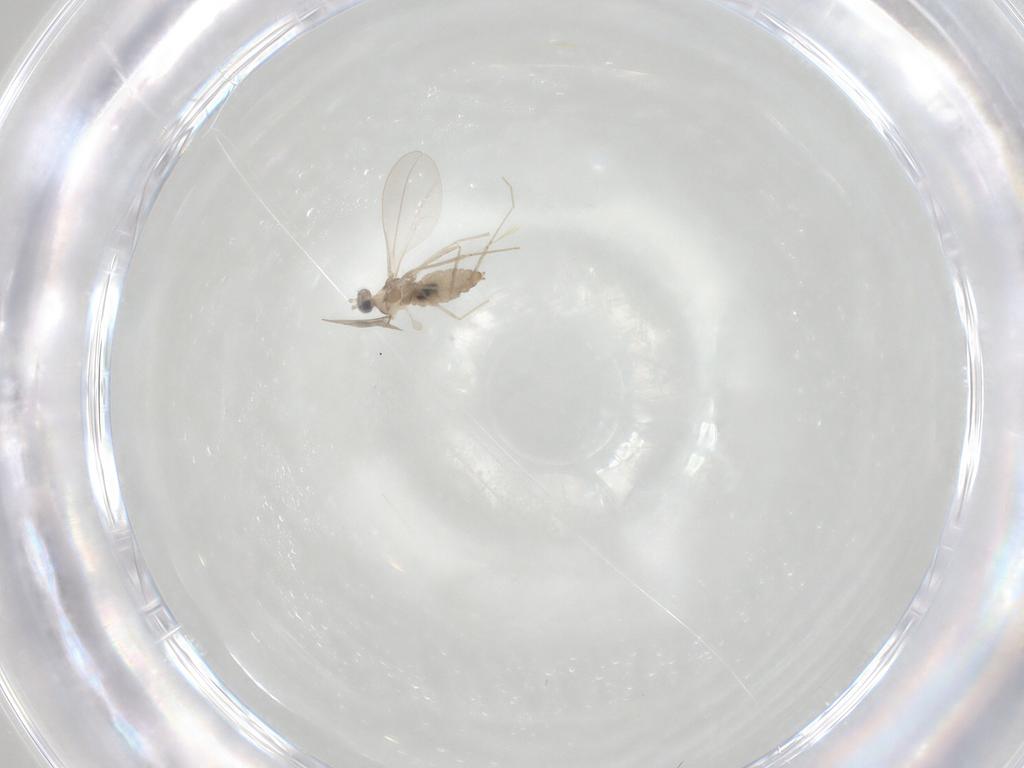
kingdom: Animalia
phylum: Arthropoda
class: Insecta
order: Diptera
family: Cecidomyiidae
